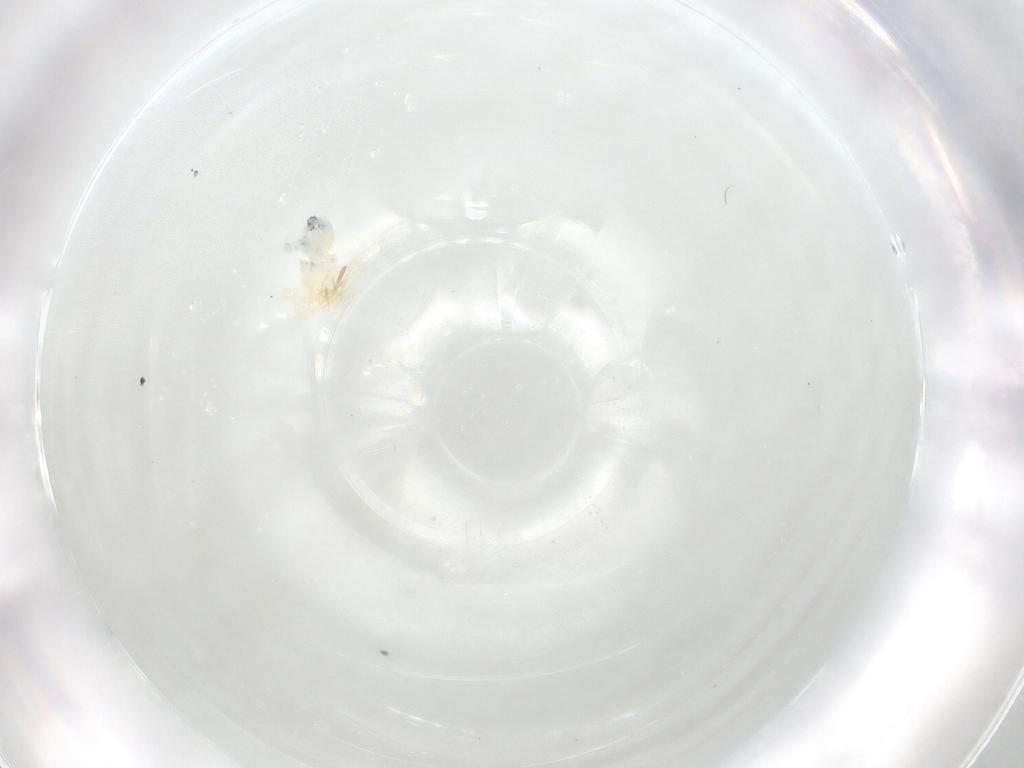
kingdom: Animalia
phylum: Arthropoda
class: Arachnida
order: Trombidiformes
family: Anystidae
